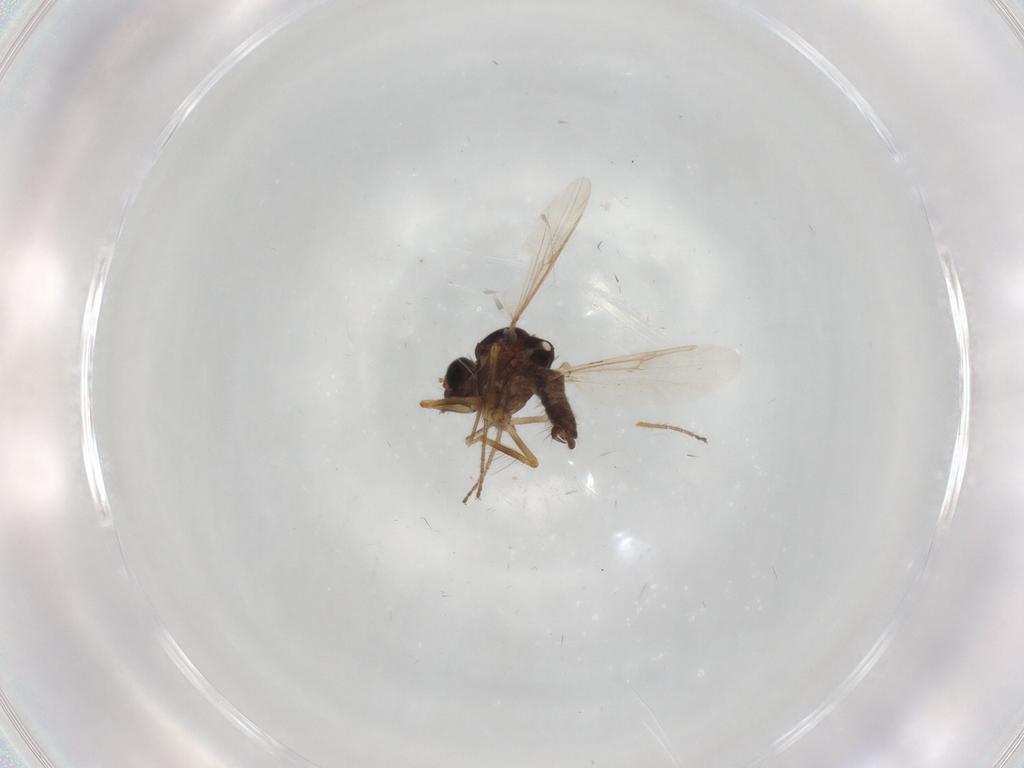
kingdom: Animalia
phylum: Arthropoda
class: Insecta
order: Diptera
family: Ceratopogonidae
